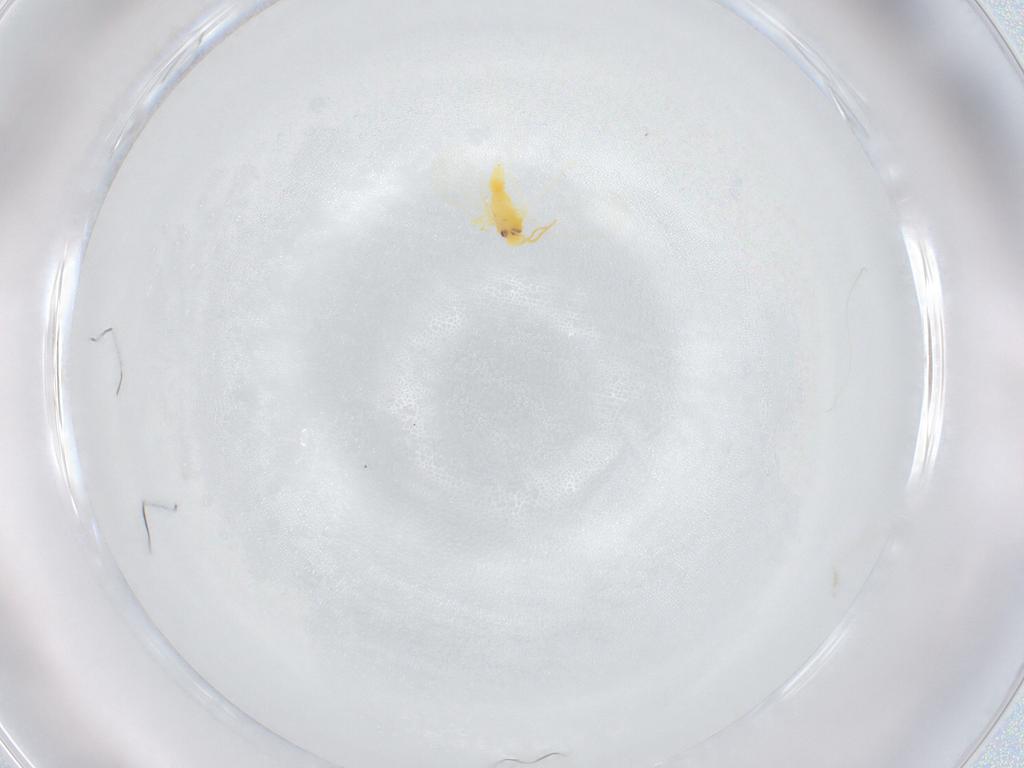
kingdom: Animalia
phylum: Arthropoda
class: Insecta
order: Hemiptera
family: Aleyrodidae
